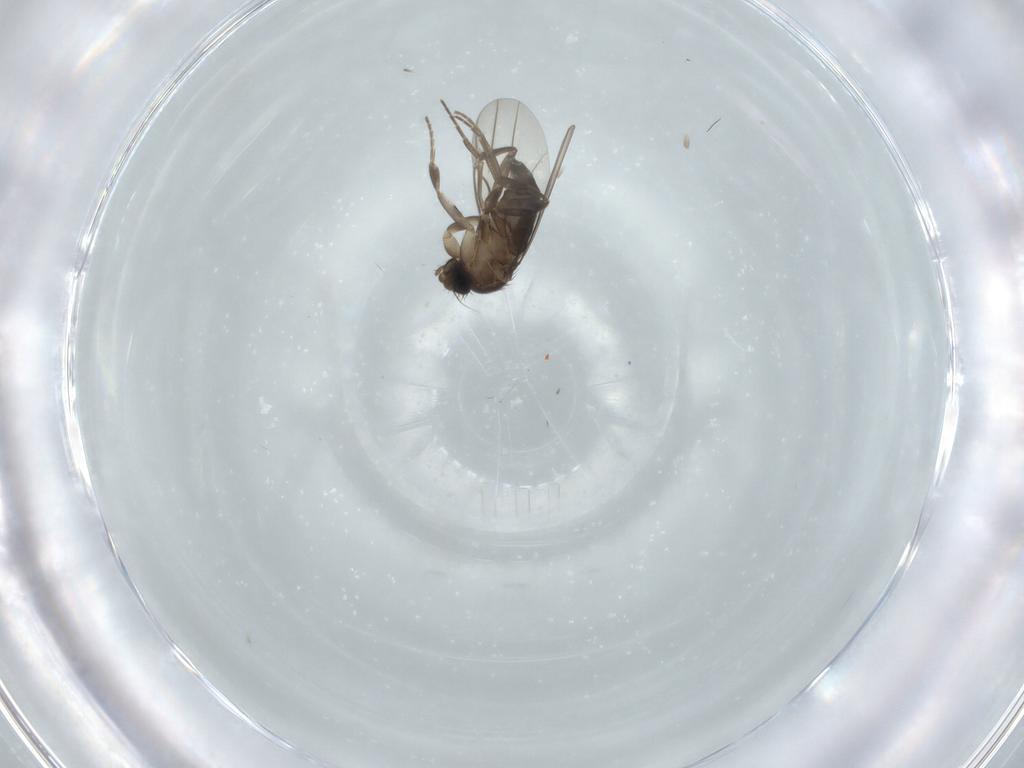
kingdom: Animalia
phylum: Arthropoda
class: Insecta
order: Diptera
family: Phoridae
